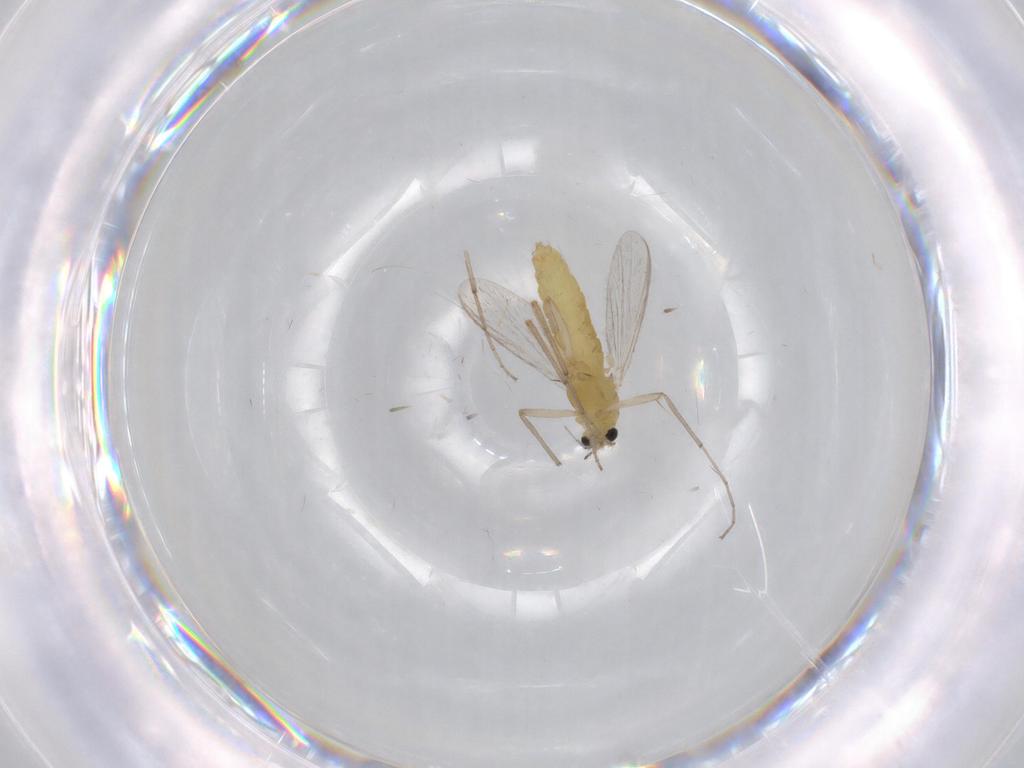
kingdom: Animalia
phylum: Arthropoda
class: Insecta
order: Diptera
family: Chironomidae
